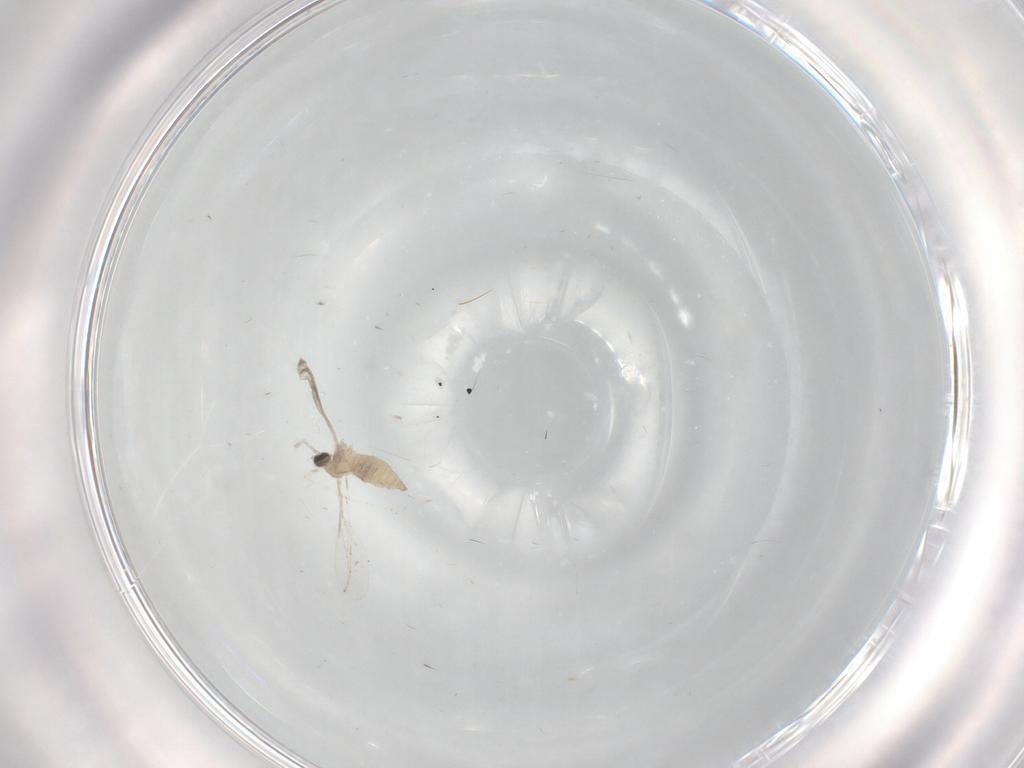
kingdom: Animalia
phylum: Arthropoda
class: Insecta
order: Diptera
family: Cecidomyiidae
